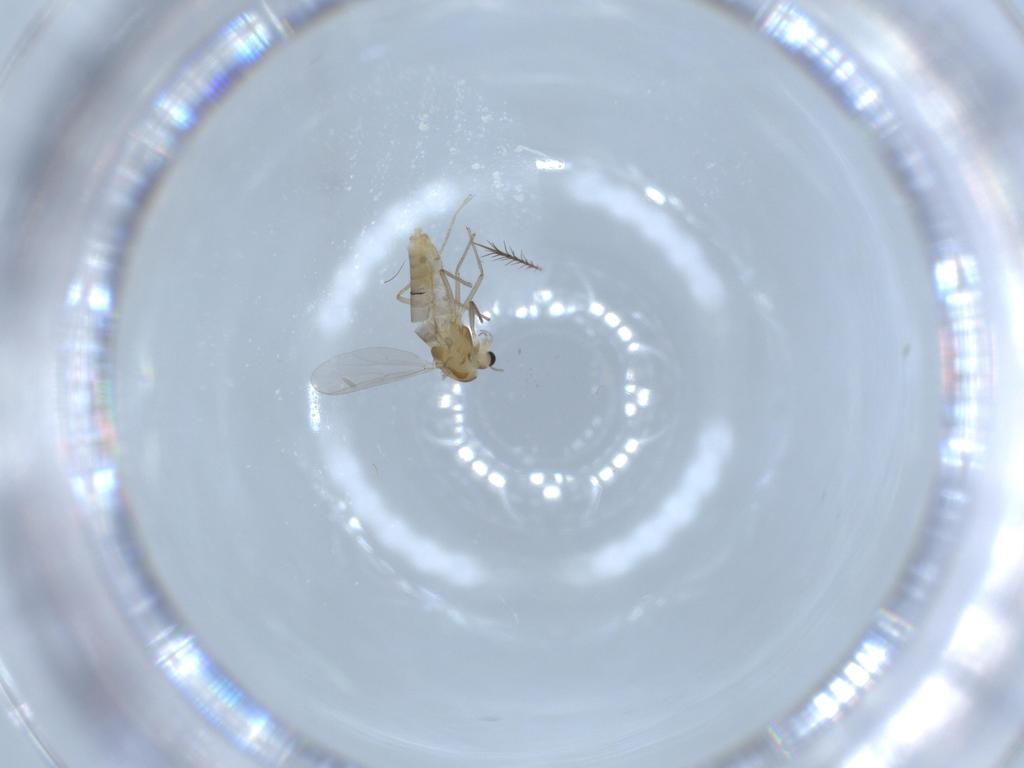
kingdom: Animalia
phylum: Arthropoda
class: Insecta
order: Diptera
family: Chironomidae
